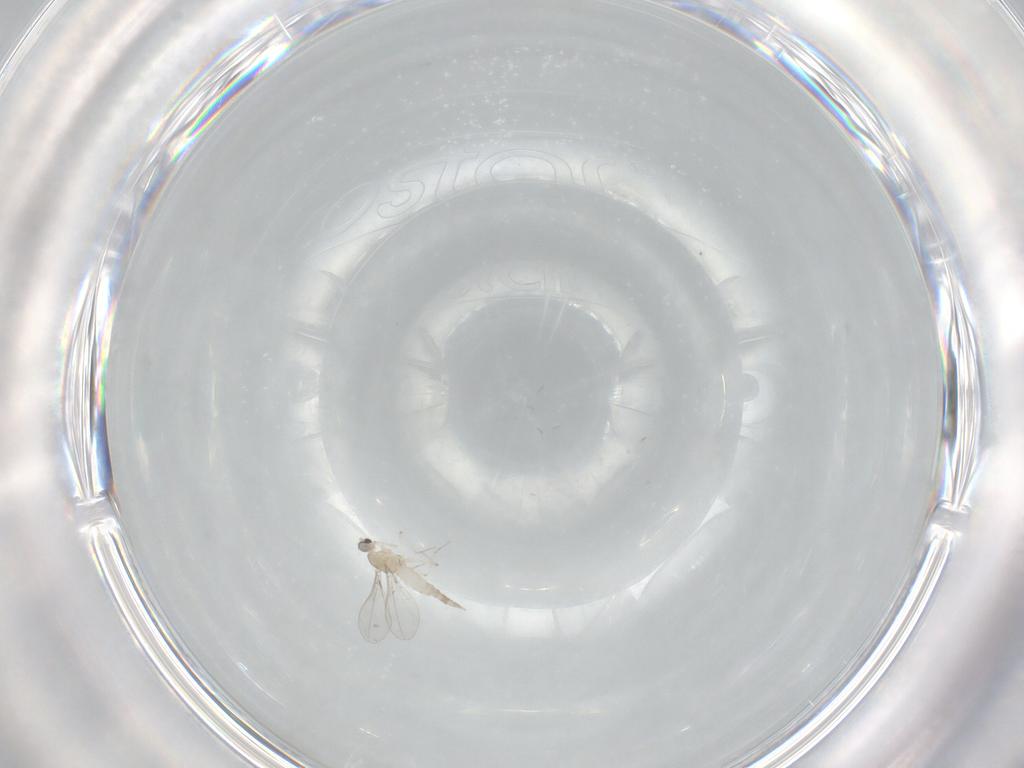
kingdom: Animalia
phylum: Arthropoda
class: Insecta
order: Diptera
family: Cecidomyiidae
